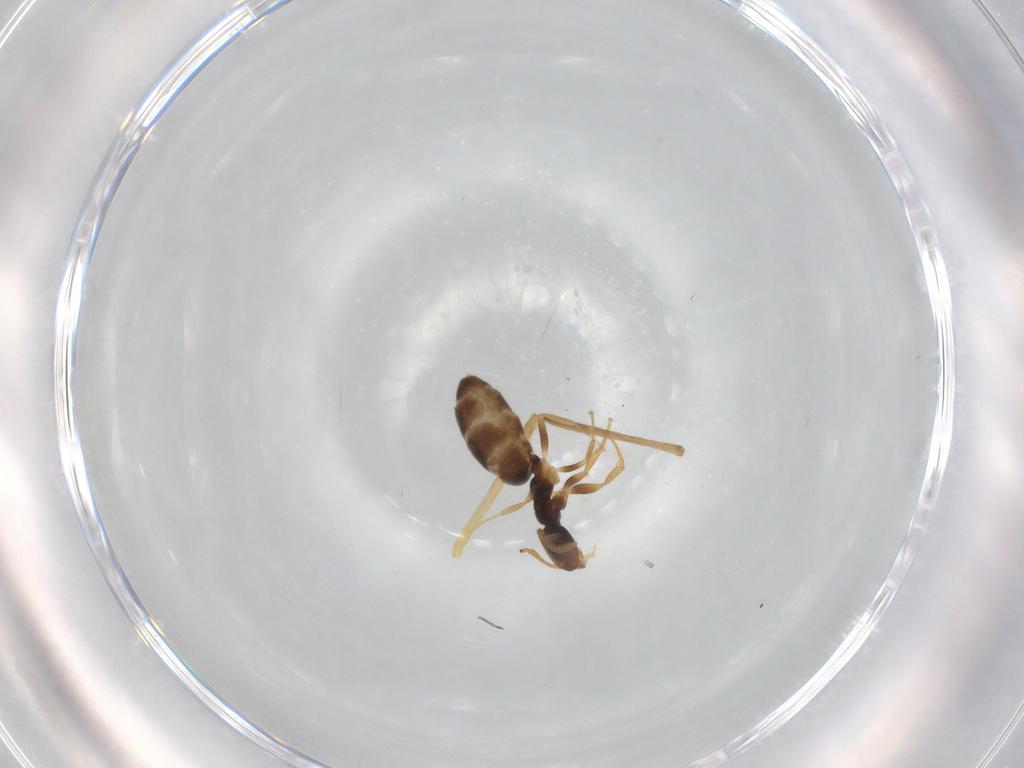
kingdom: Animalia
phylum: Arthropoda
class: Insecta
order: Hymenoptera
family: Formicidae
